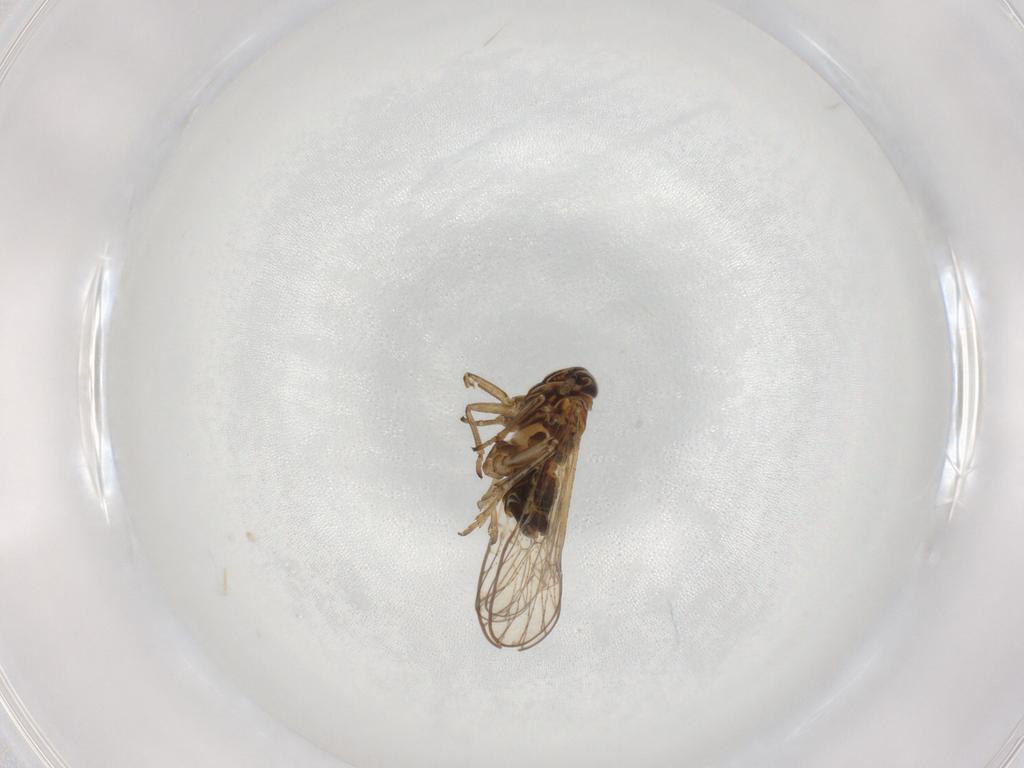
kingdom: Animalia
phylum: Arthropoda
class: Insecta
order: Hemiptera
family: Delphacidae
